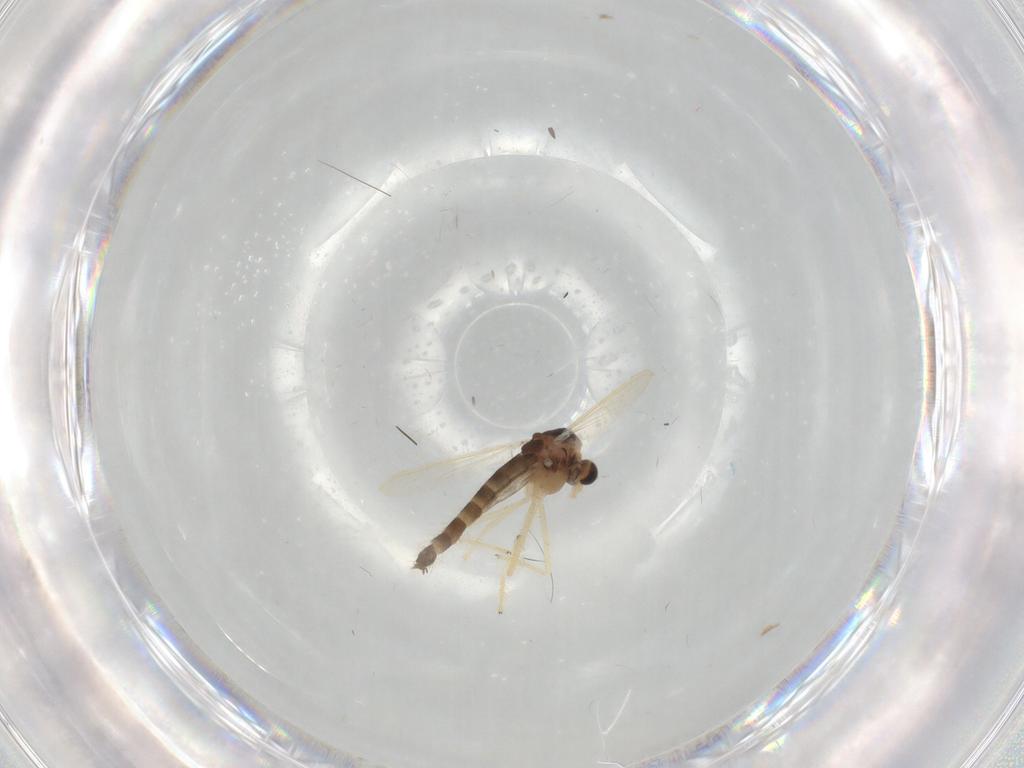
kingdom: Animalia
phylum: Arthropoda
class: Insecta
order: Diptera
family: Chironomidae
